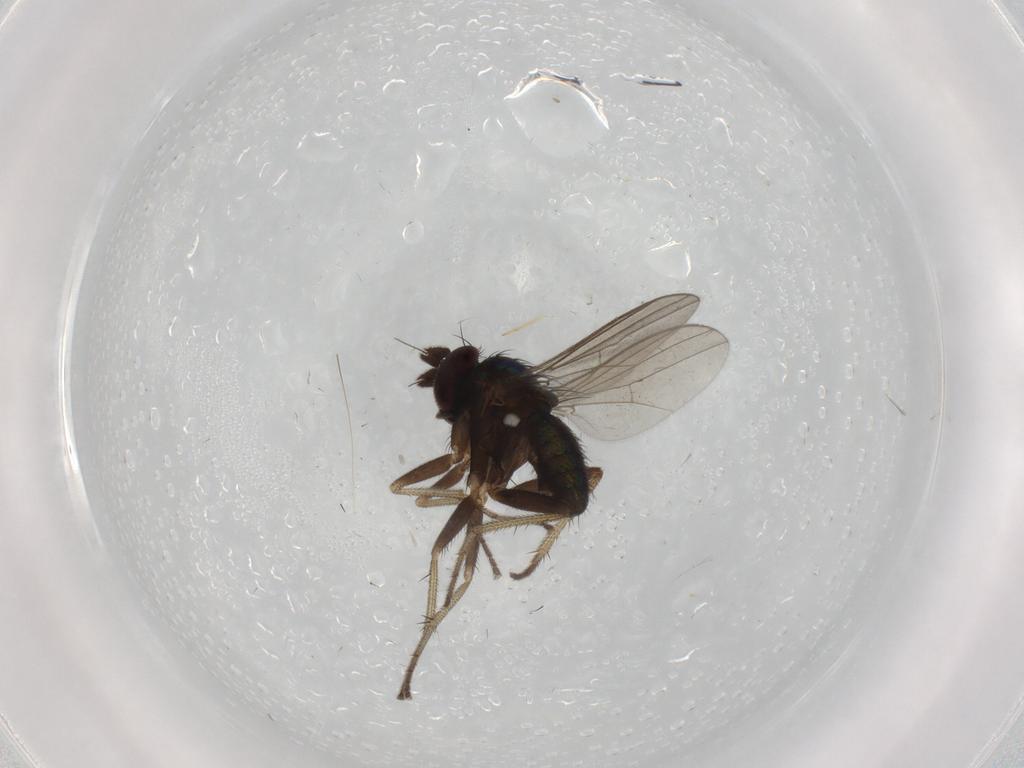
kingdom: Animalia
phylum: Arthropoda
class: Insecta
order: Diptera
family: Dolichopodidae
